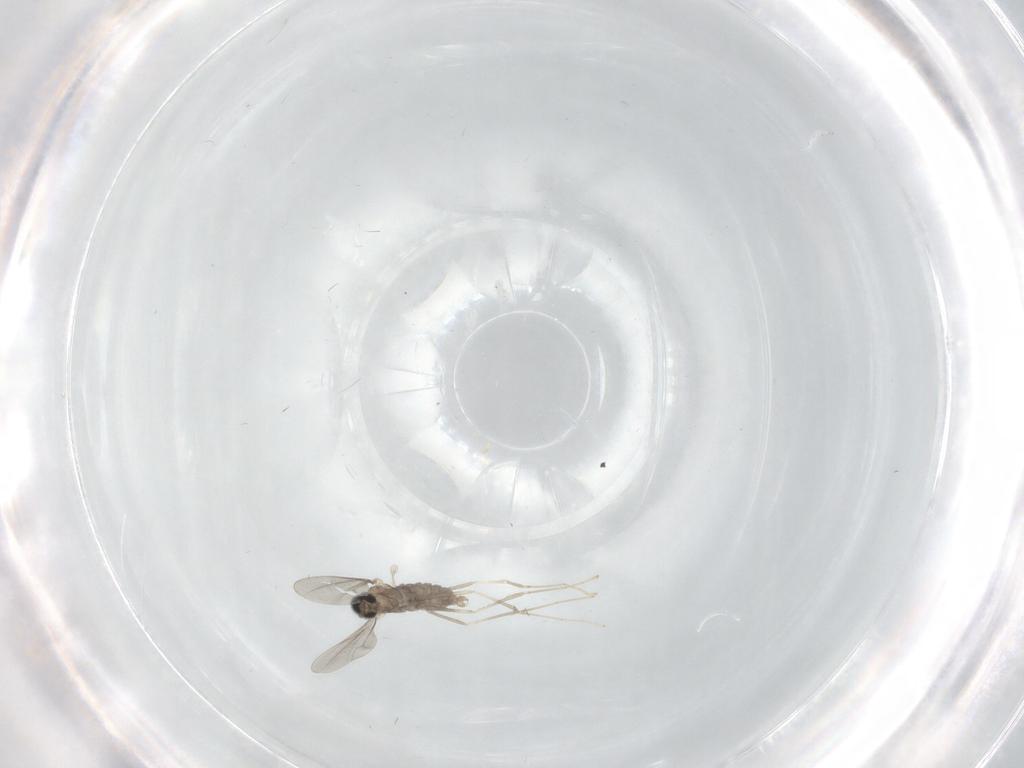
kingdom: Animalia
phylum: Arthropoda
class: Insecta
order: Diptera
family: Cecidomyiidae
